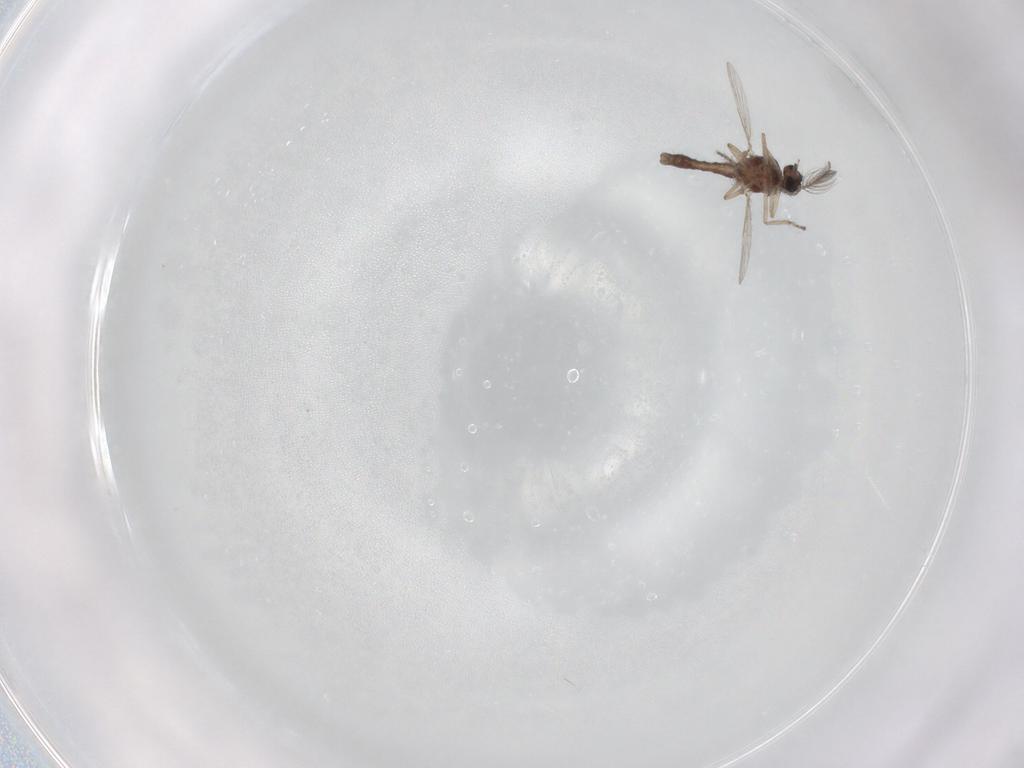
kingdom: Animalia
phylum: Arthropoda
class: Insecta
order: Diptera
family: Ceratopogonidae
